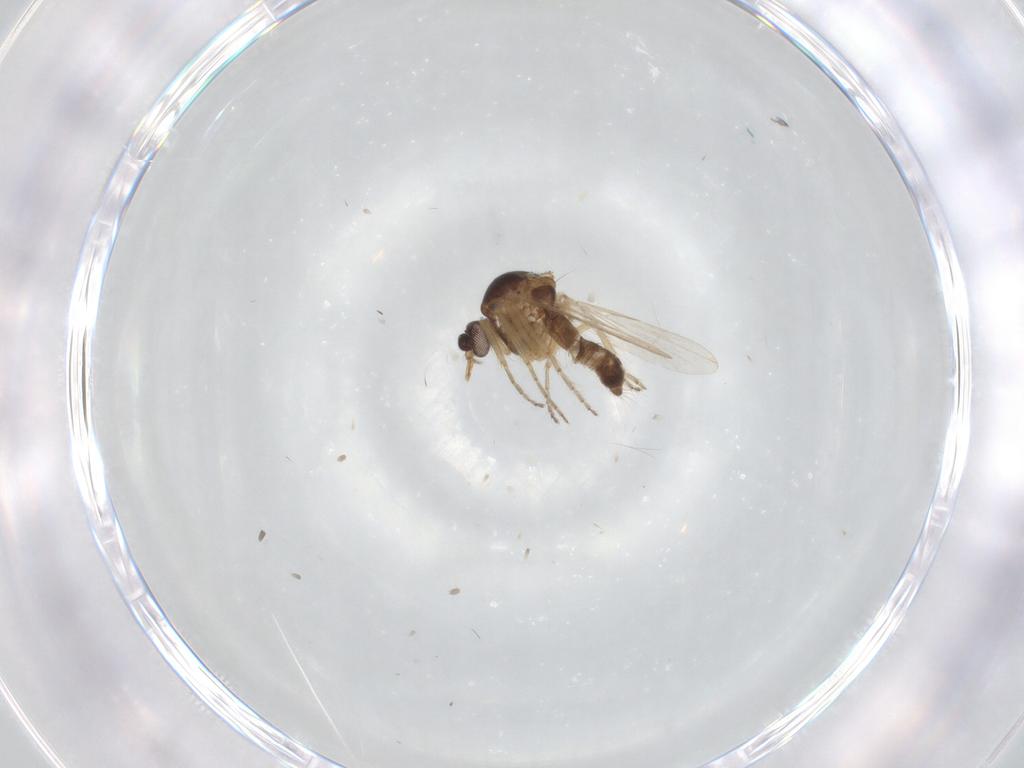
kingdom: Animalia
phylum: Arthropoda
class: Insecta
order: Diptera
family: Ceratopogonidae
